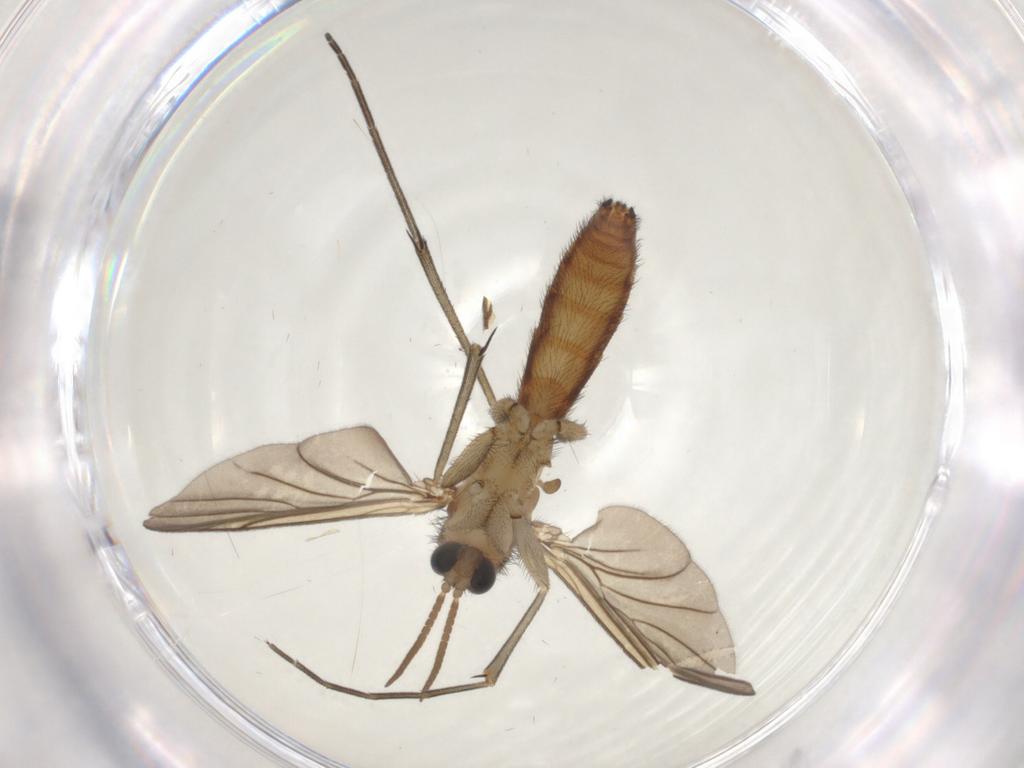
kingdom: Animalia
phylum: Arthropoda
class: Insecta
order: Diptera
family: Keroplatidae
